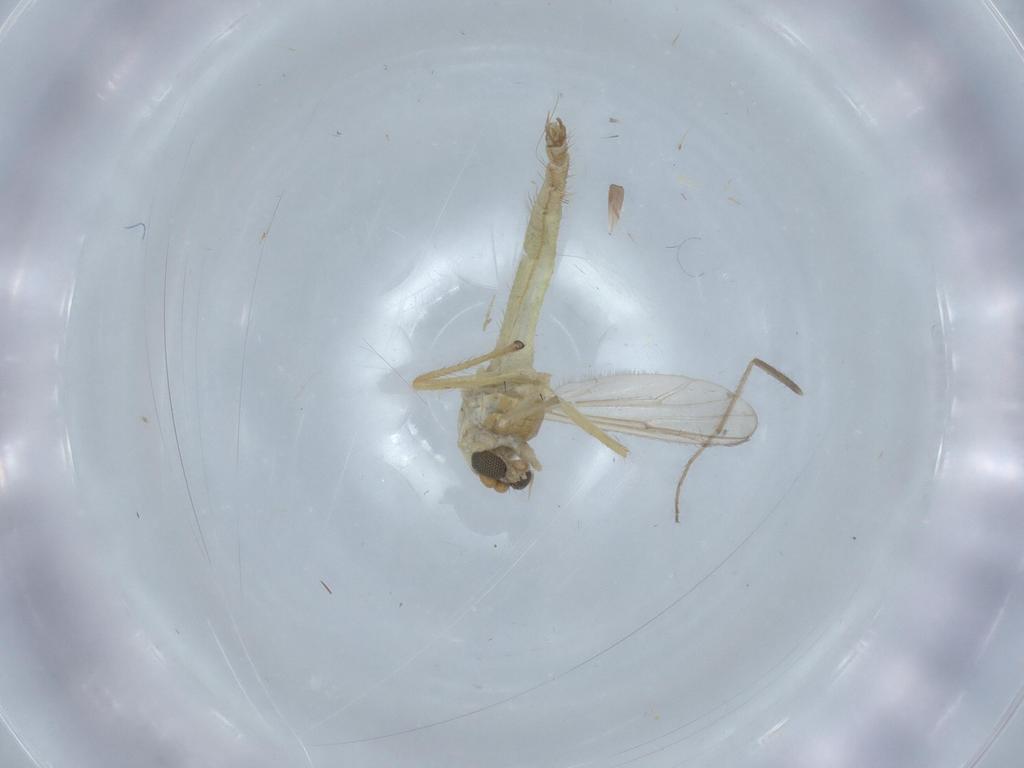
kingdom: Animalia
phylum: Arthropoda
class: Insecta
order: Diptera
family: Chironomidae
